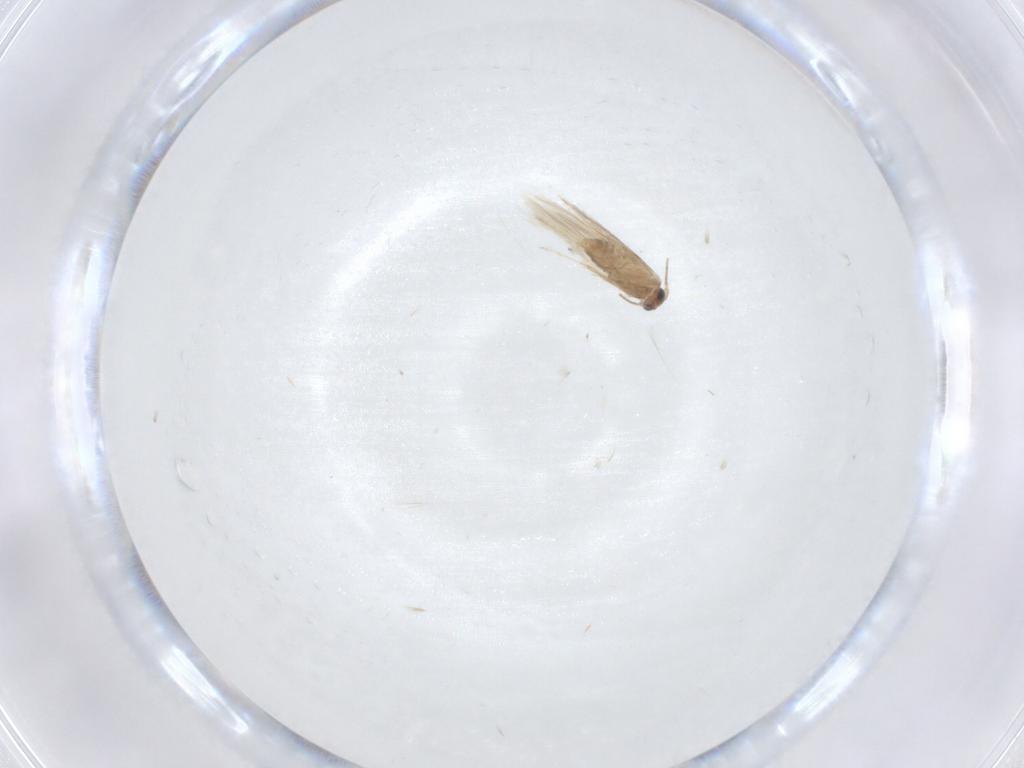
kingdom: Animalia
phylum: Arthropoda
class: Insecta
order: Lepidoptera
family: Nepticulidae
